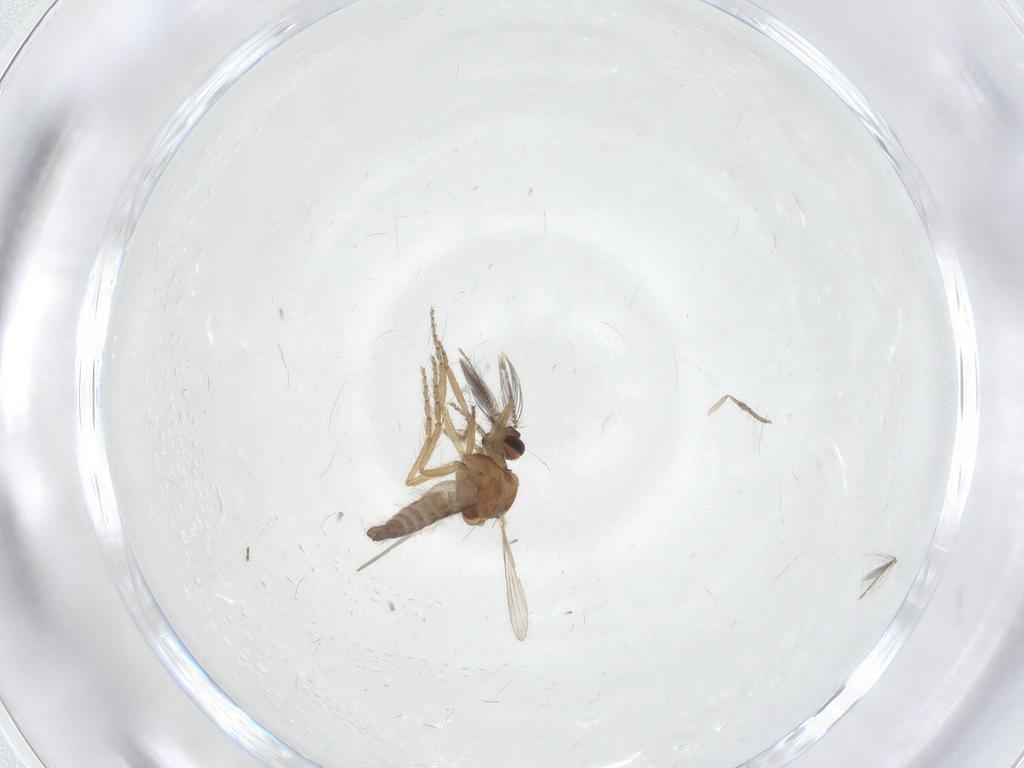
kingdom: Animalia
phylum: Arthropoda
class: Insecta
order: Diptera
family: Ceratopogonidae
